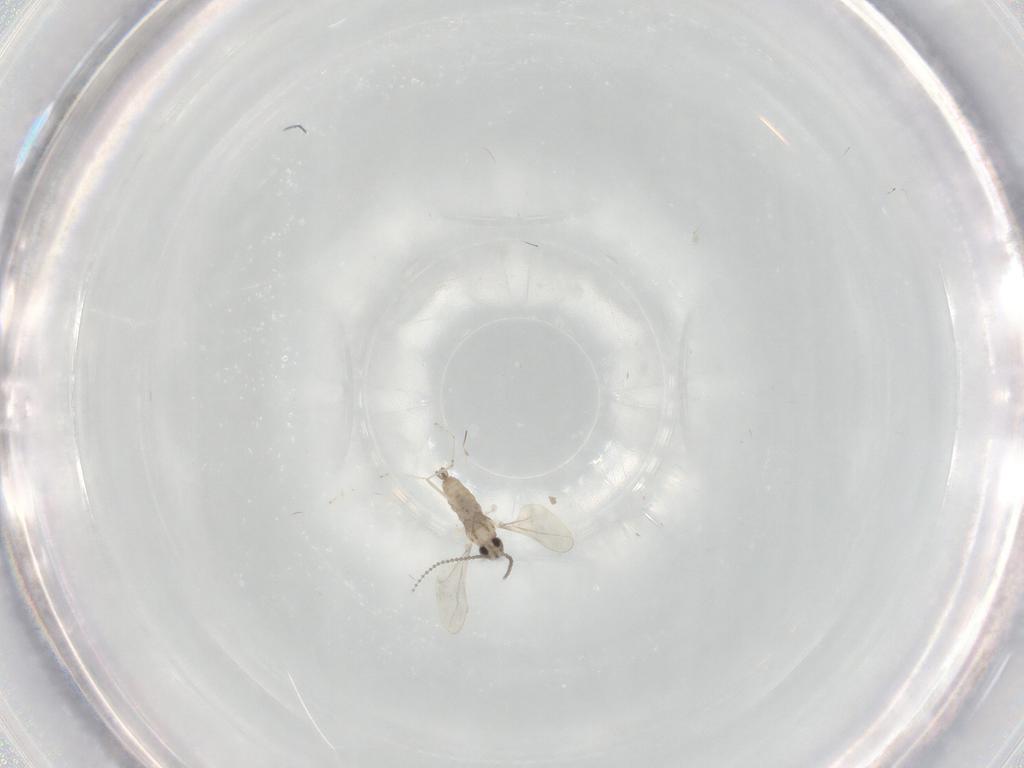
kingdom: Animalia
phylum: Arthropoda
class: Insecta
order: Diptera
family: Cecidomyiidae
